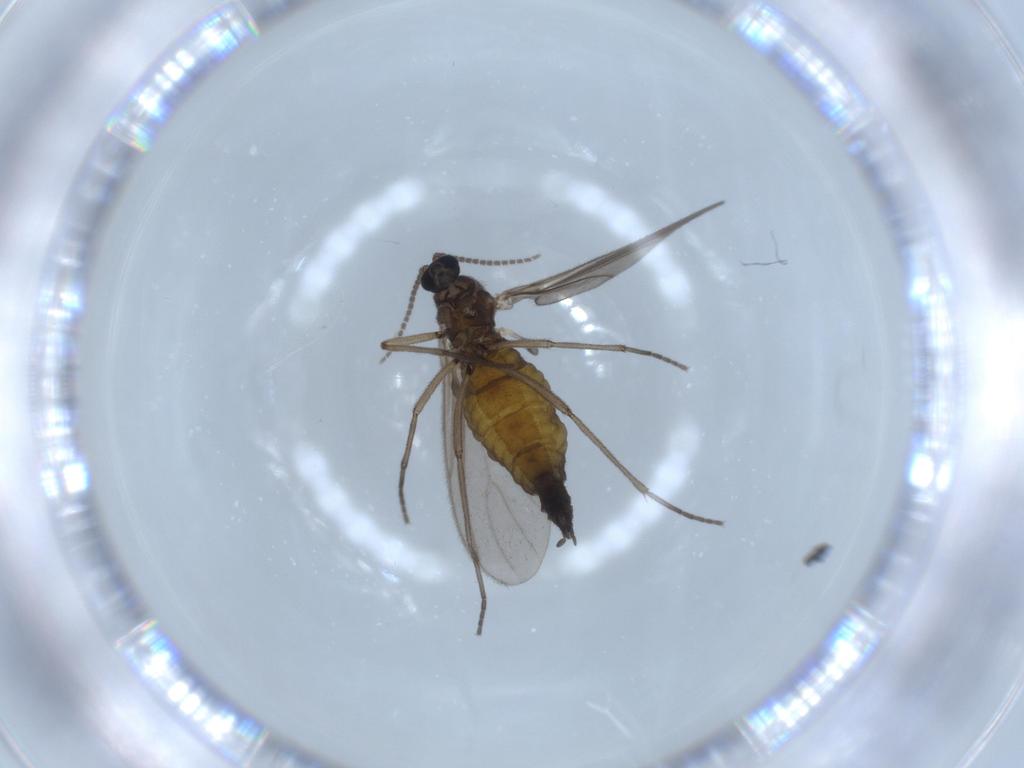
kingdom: Animalia
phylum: Arthropoda
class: Insecta
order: Diptera
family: Sciaridae
